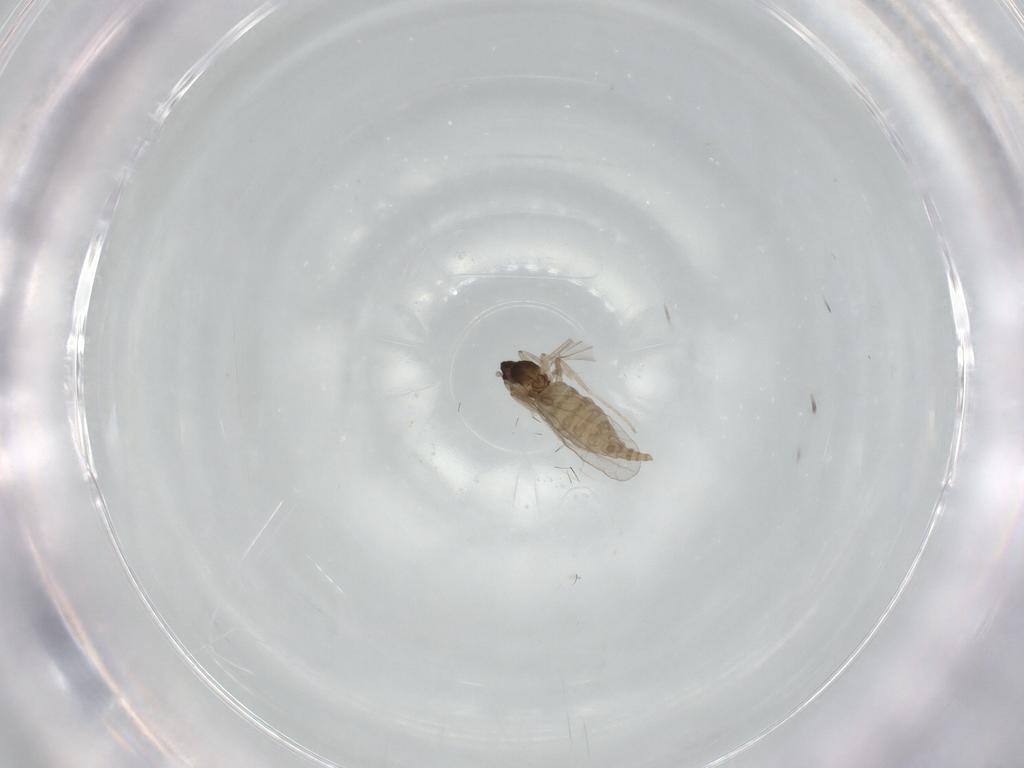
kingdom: Animalia
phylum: Arthropoda
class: Insecta
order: Diptera
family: Cecidomyiidae
